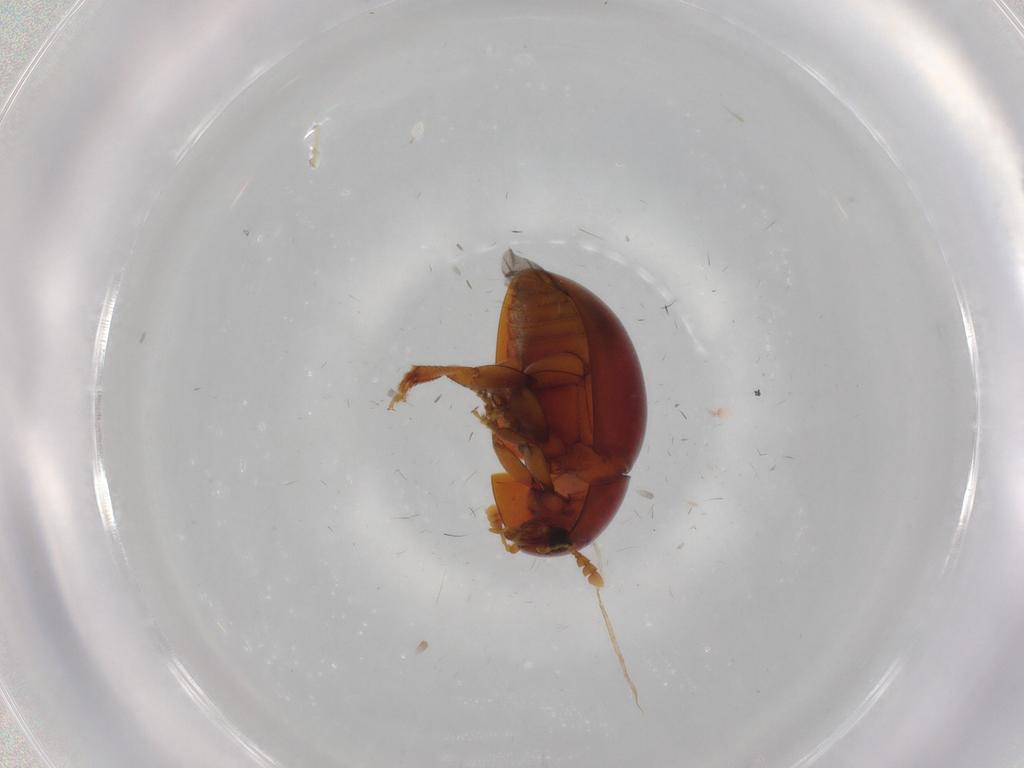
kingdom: Animalia
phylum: Arthropoda
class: Insecta
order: Coleoptera
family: Phalacridae
